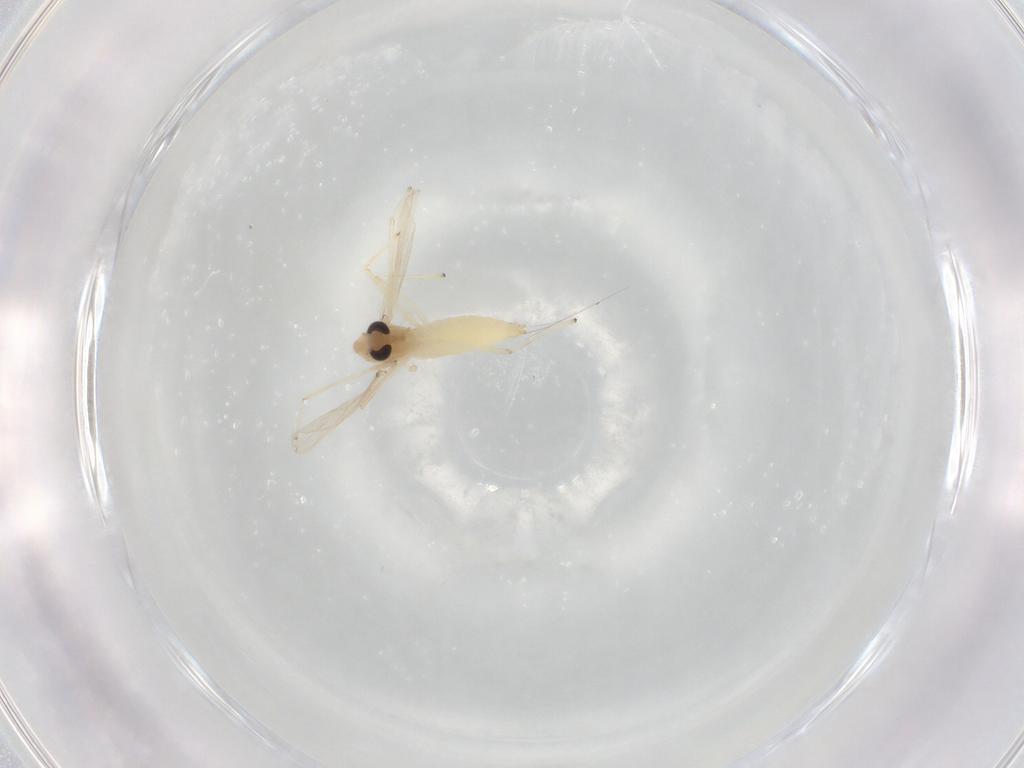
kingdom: Animalia
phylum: Arthropoda
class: Insecta
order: Diptera
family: Chironomidae
